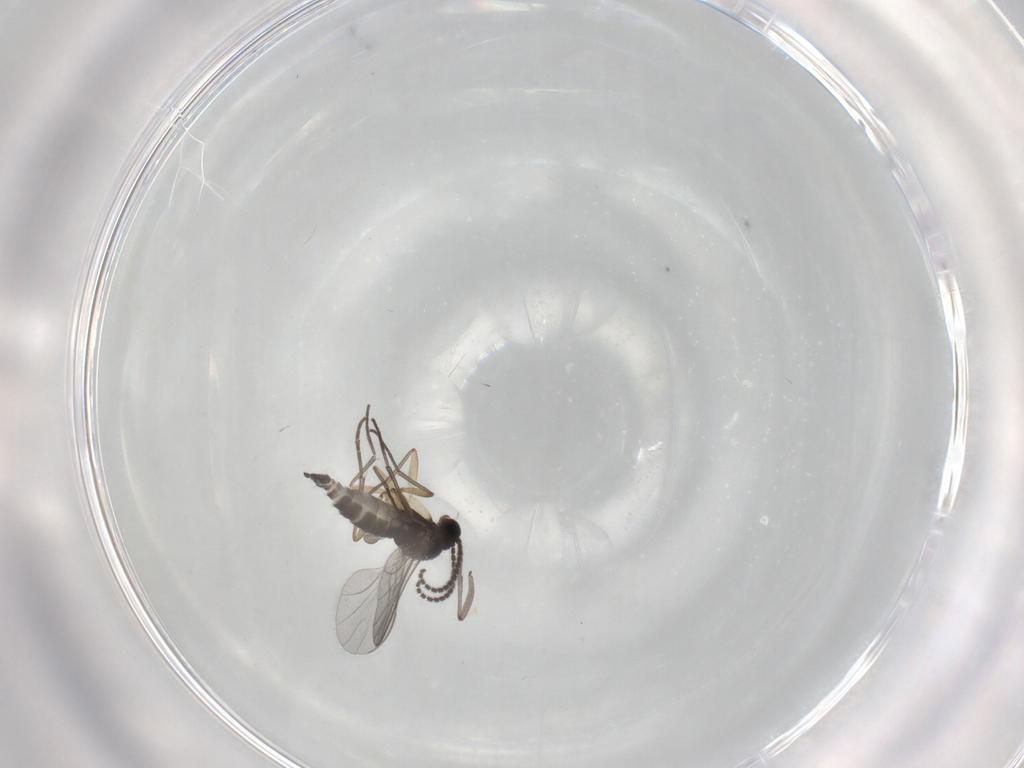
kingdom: Animalia
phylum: Arthropoda
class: Insecta
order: Diptera
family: Sciaridae
